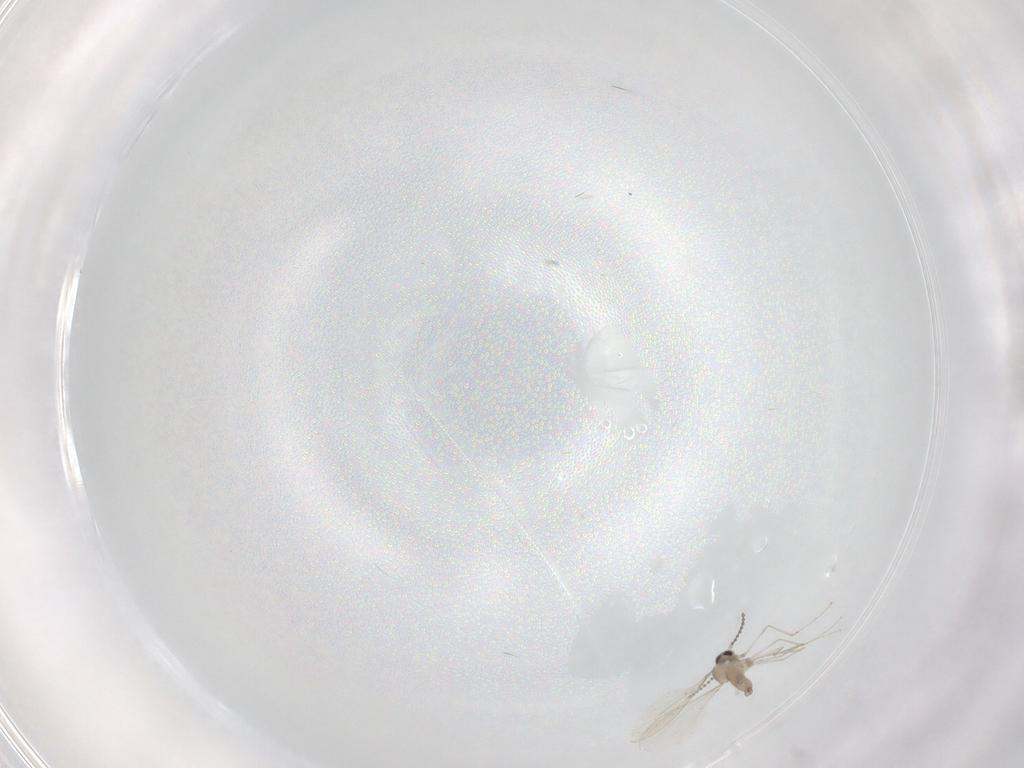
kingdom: Animalia
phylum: Arthropoda
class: Insecta
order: Diptera
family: Cecidomyiidae
